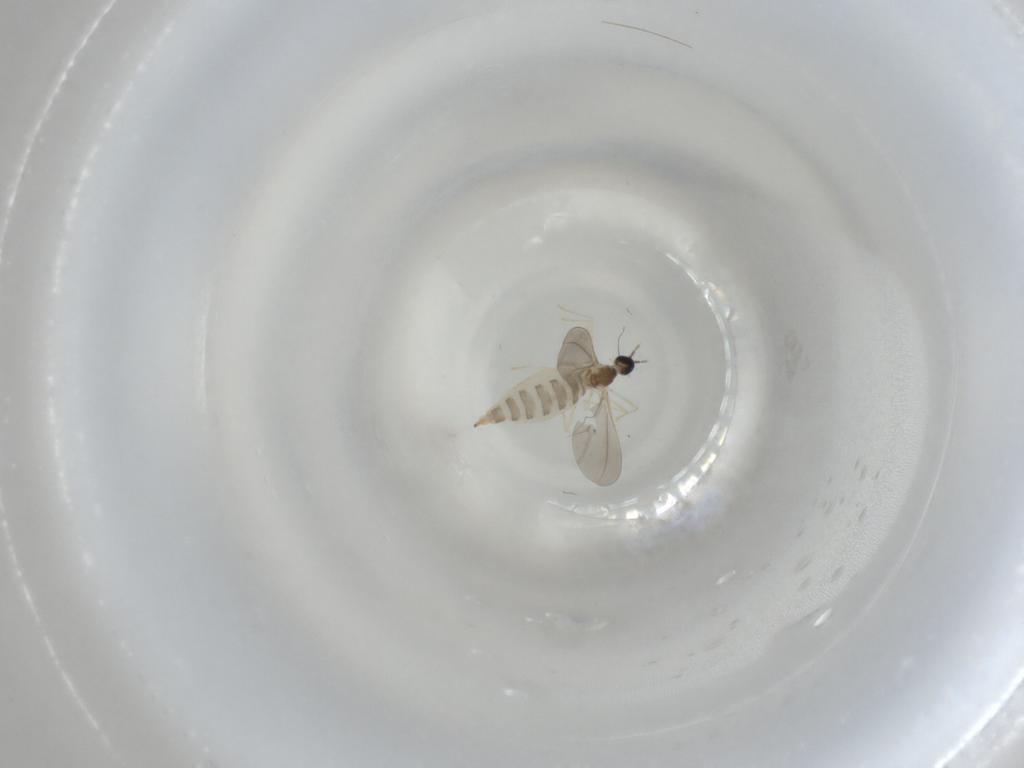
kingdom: Animalia
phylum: Arthropoda
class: Insecta
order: Diptera
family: Cecidomyiidae
